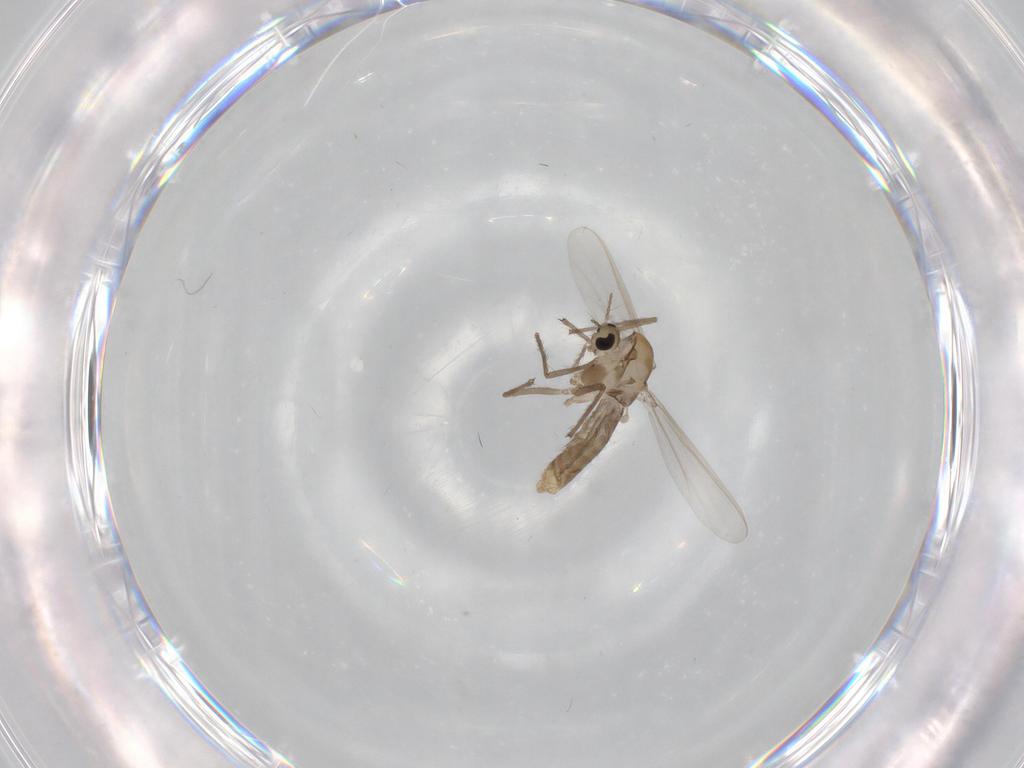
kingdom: Animalia
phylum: Arthropoda
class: Insecta
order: Diptera
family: Chironomidae
